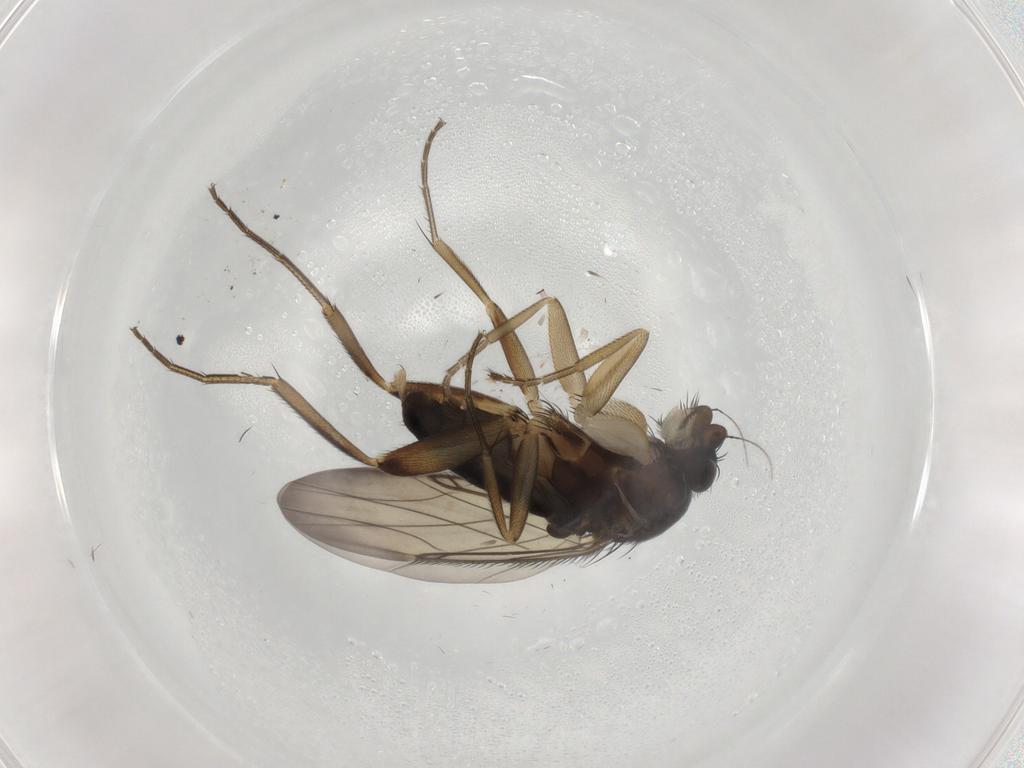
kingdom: Animalia
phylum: Arthropoda
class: Insecta
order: Diptera
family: Phoridae
